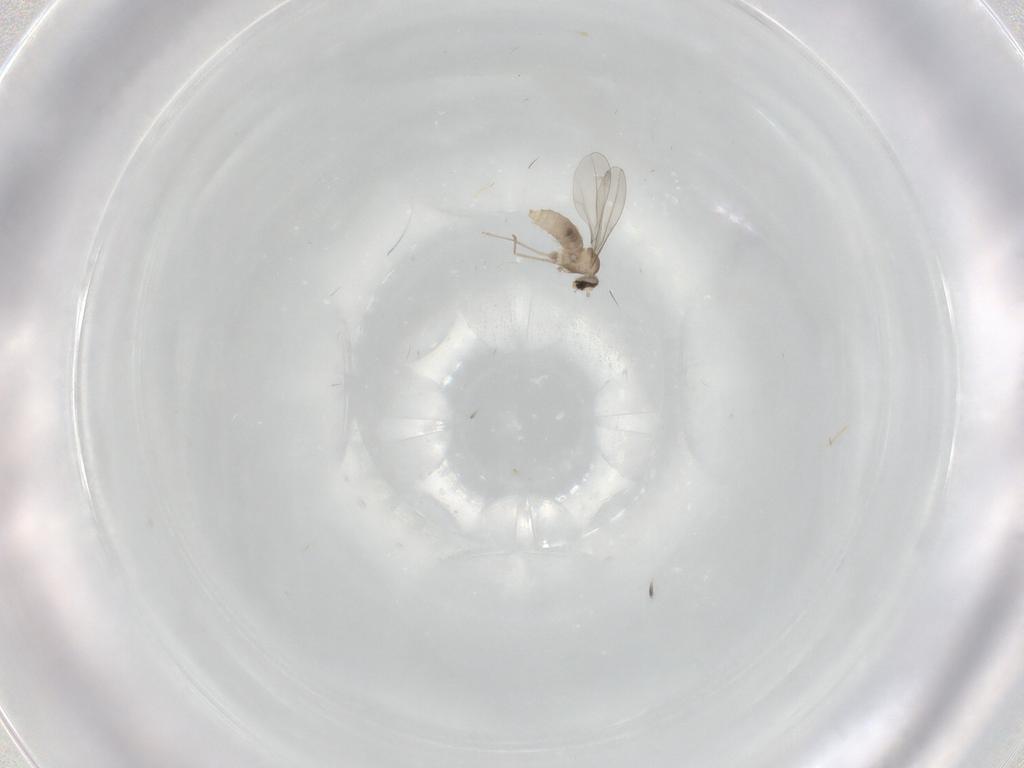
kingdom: Animalia
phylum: Arthropoda
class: Insecta
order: Diptera
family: Cecidomyiidae
